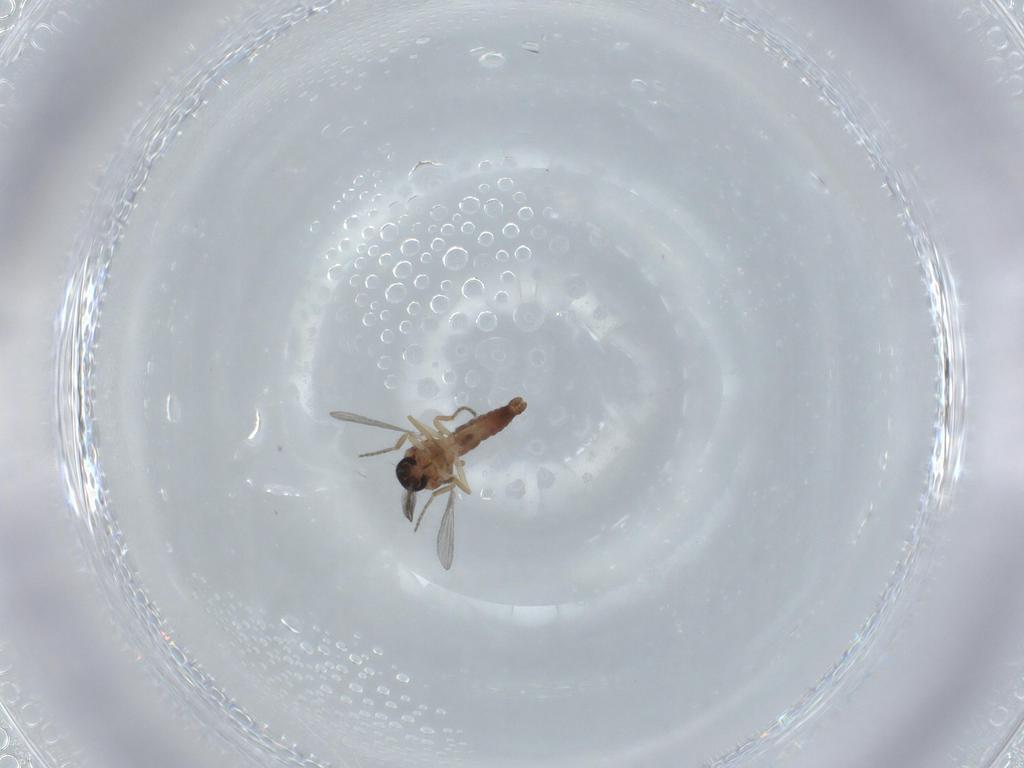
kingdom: Animalia
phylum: Arthropoda
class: Insecta
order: Diptera
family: Ceratopogonidae
